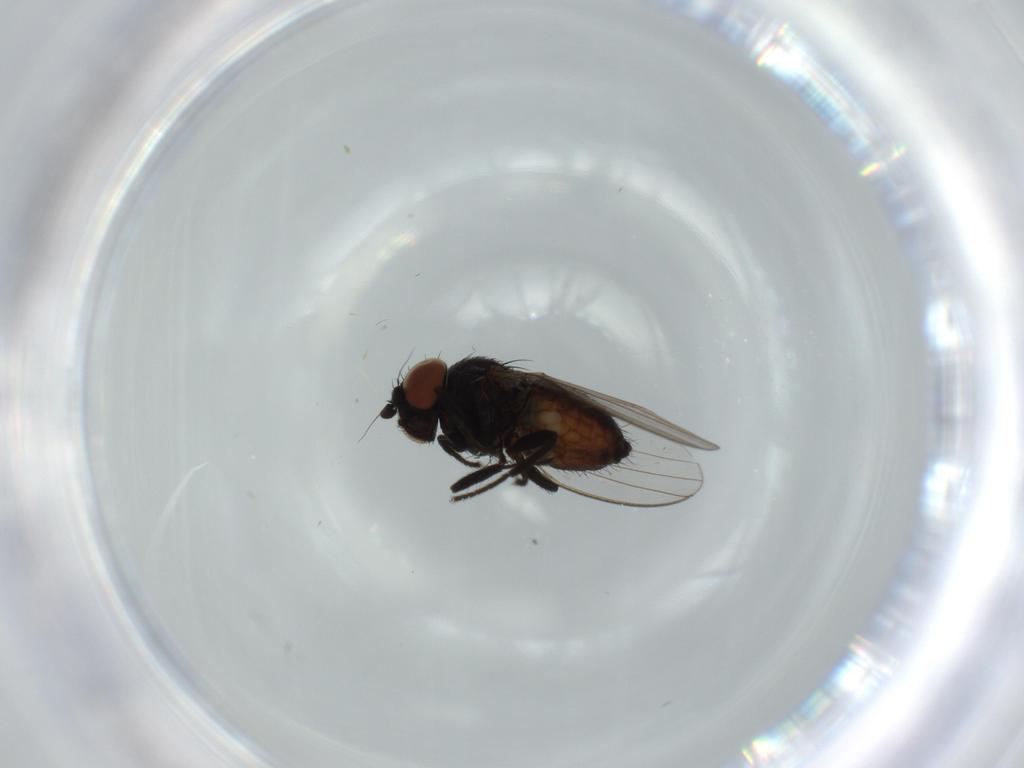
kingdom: Animalia
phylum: Arthropoda
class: Insecta
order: Diptera
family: Milichiidae
